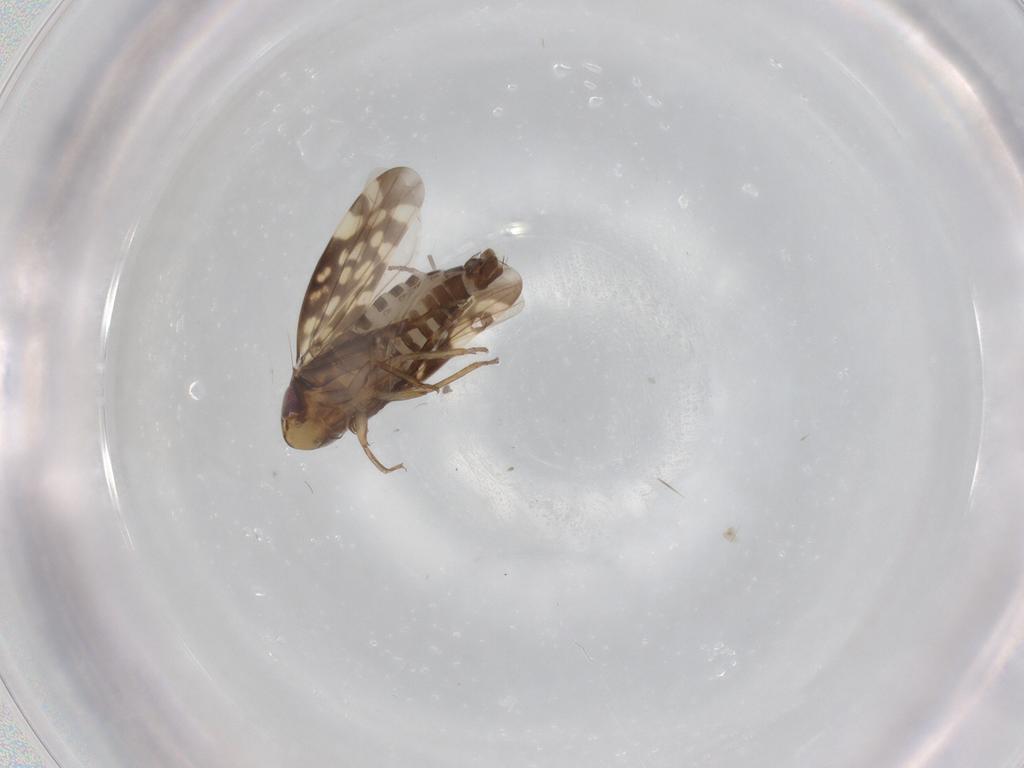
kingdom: Animalia
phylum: Arthropoda
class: Insecta
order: Hemiptera
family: Cicadellidae
